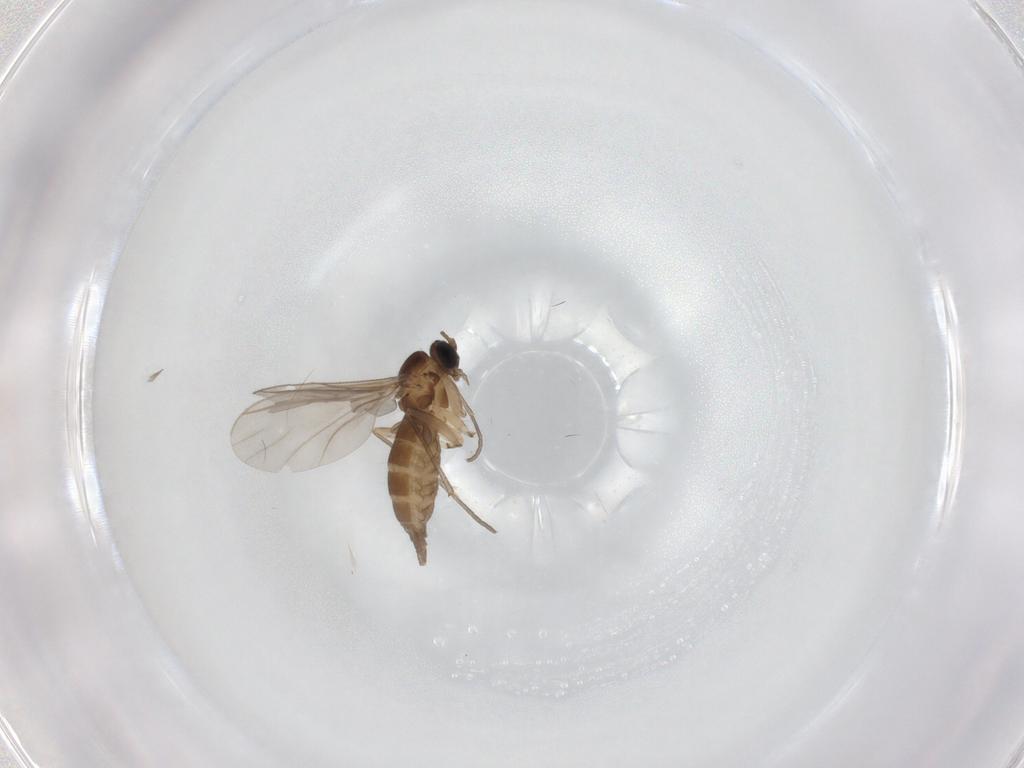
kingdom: Animalia
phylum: Arthropoda
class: Insecta
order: Diptera
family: Sciaridae
